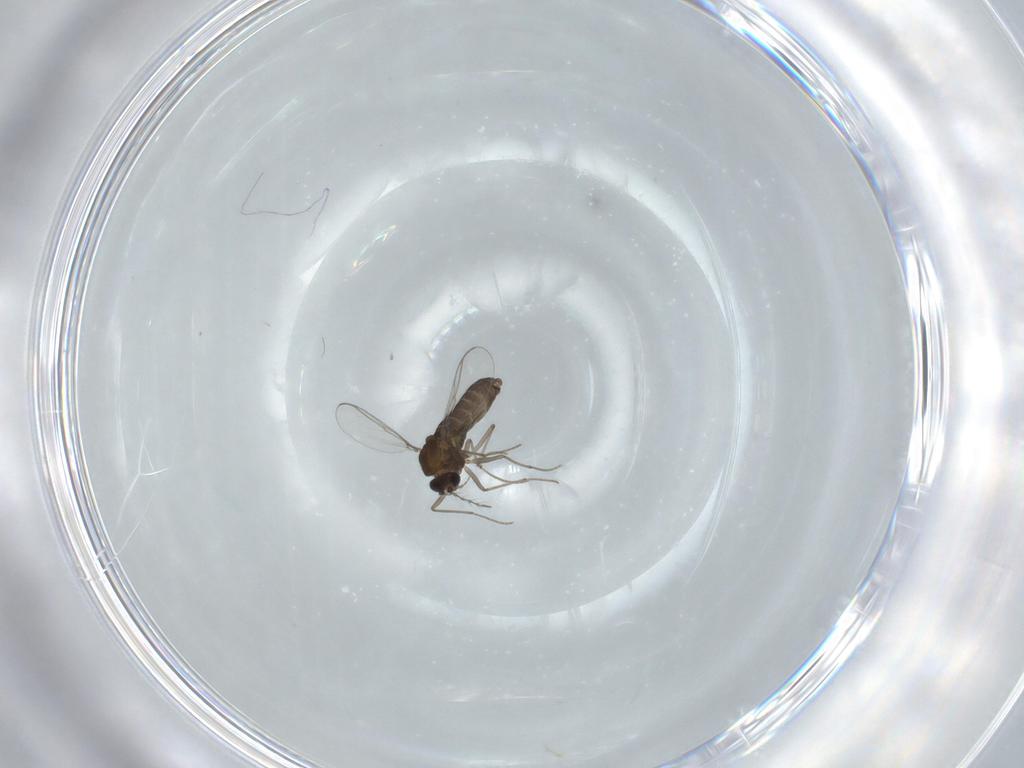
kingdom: Animalia
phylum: Arthropoda
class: Insecta
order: Diptera
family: Chironomidae
